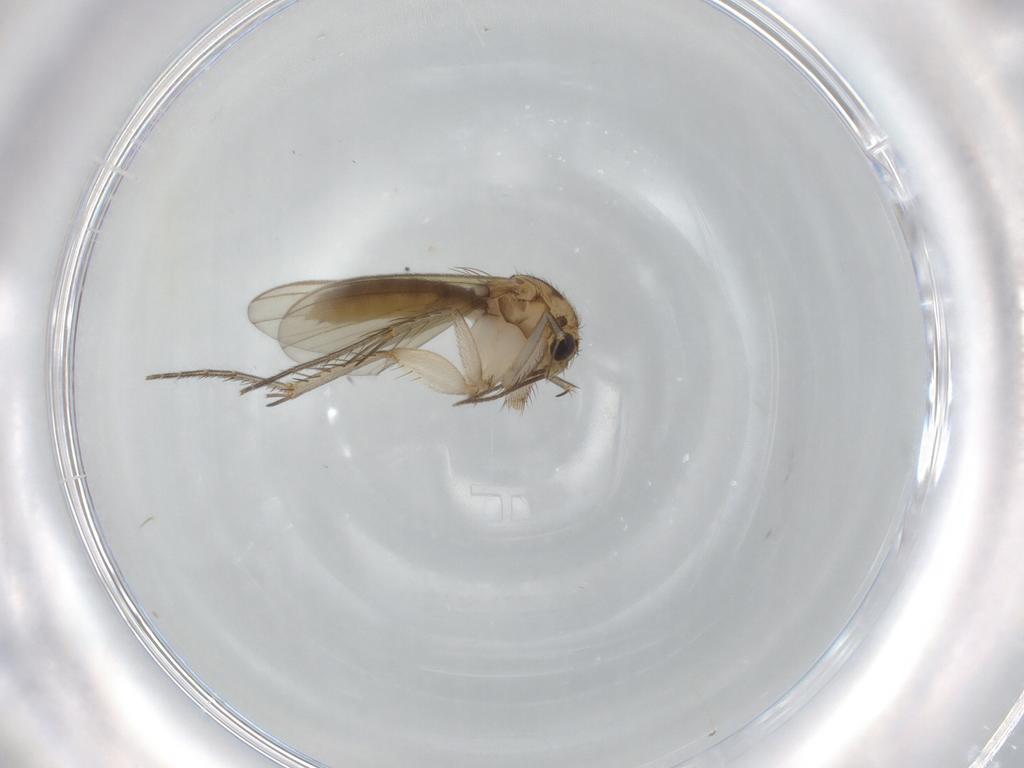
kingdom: Animalia
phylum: Arthropoda
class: Insecta
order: Diptera
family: Mycetophilidae
